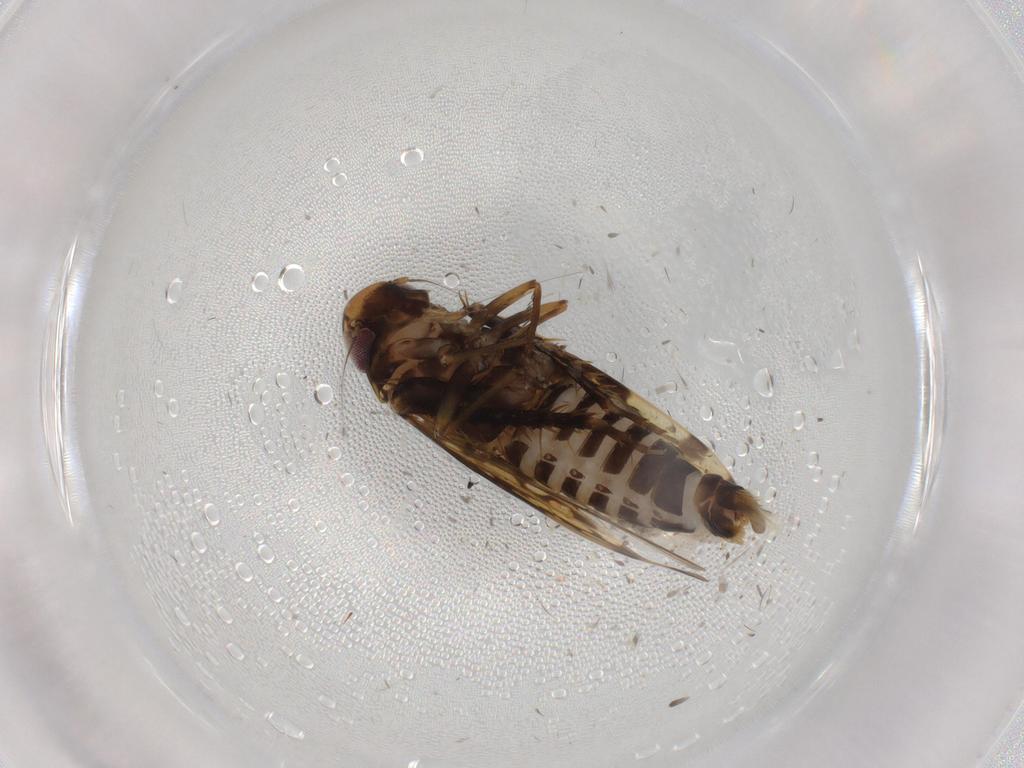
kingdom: Animalia
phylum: Arthropoda
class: Insecta
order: Hemiptera
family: Cicadellidae
